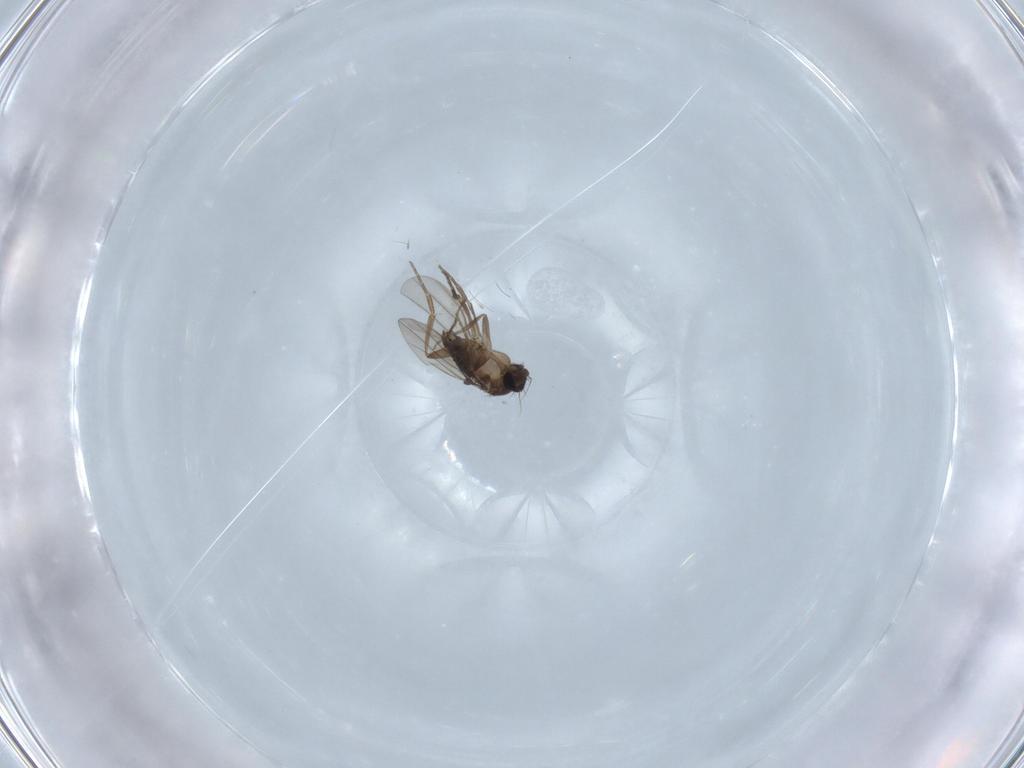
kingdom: Animalia
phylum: Arthropoda
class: Insecta
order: Diptera
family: Phoridae
